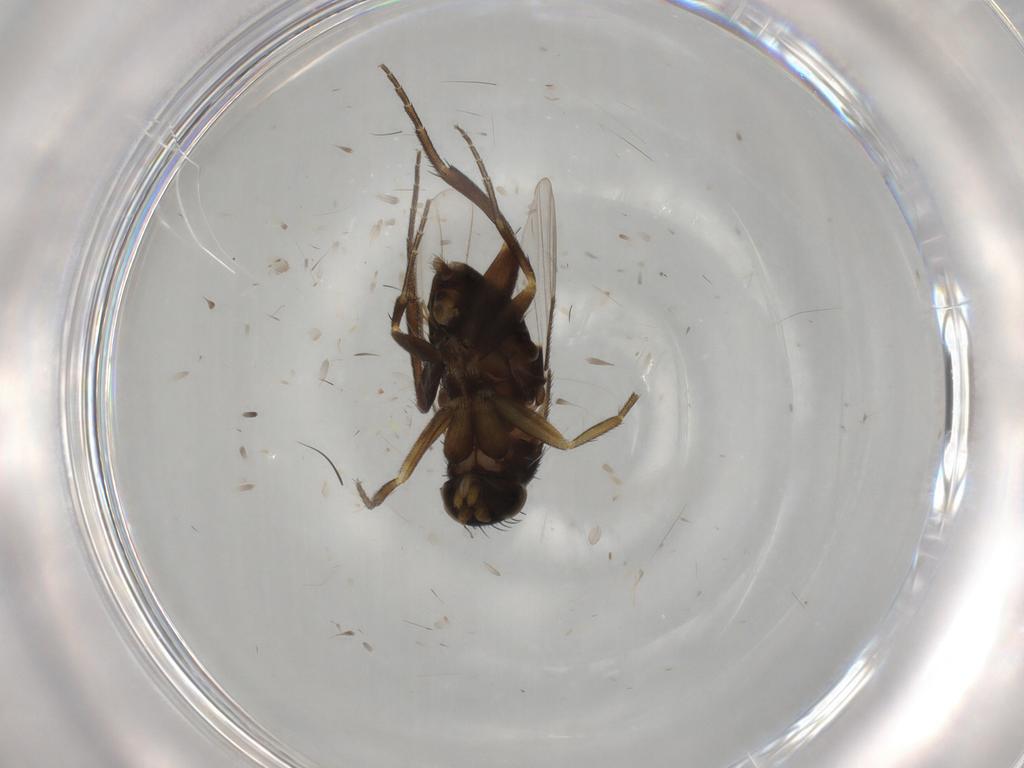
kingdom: Animalia
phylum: Arthropoda
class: Insecta
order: Diptera
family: Phoridae
